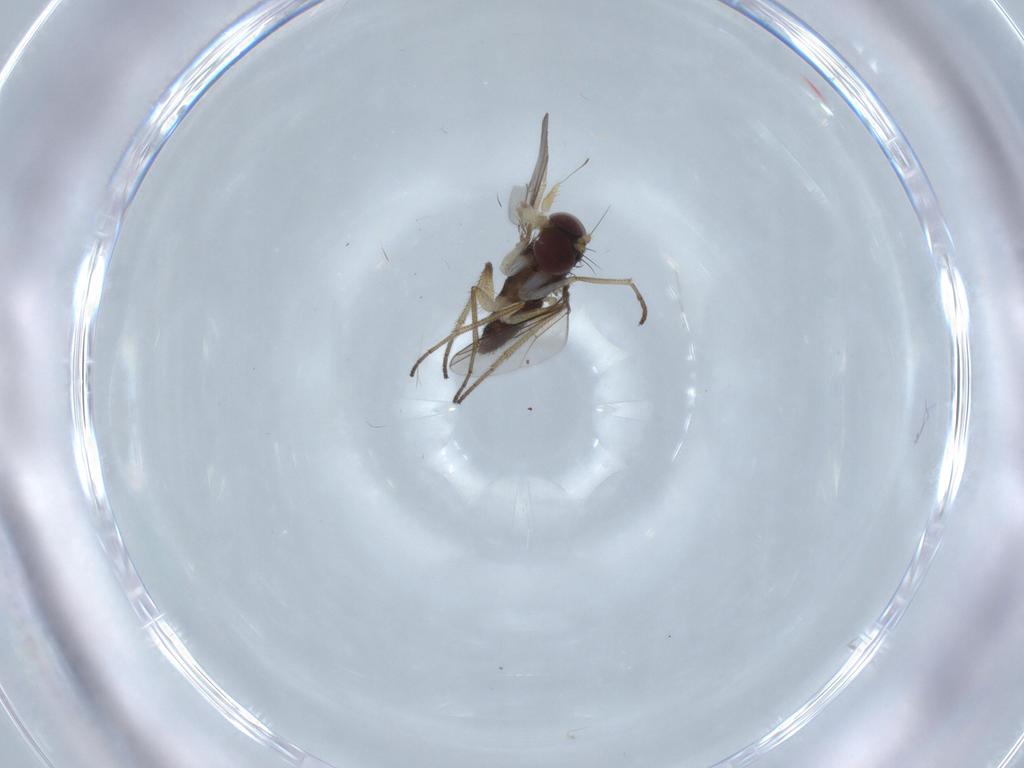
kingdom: Animalia
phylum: Arthropoda
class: Insecta
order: Diptera
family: Dolichopodidae
